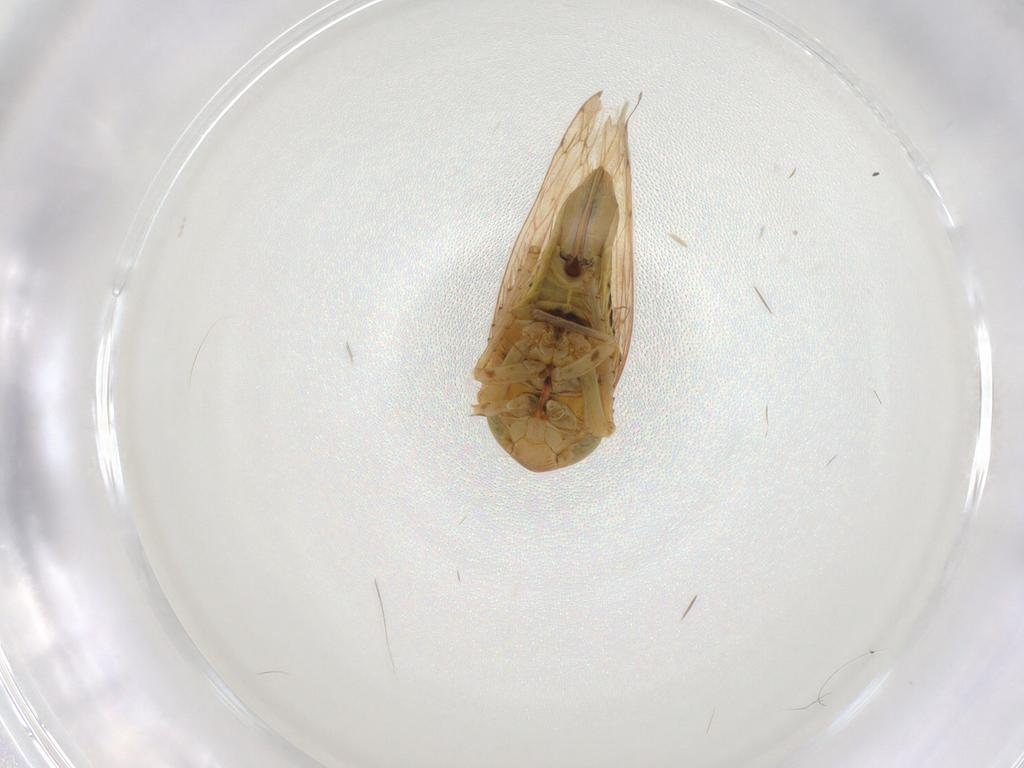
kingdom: Animalia
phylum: Arthropoda
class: Insecta
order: Hemiptera
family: Cicadellidae
